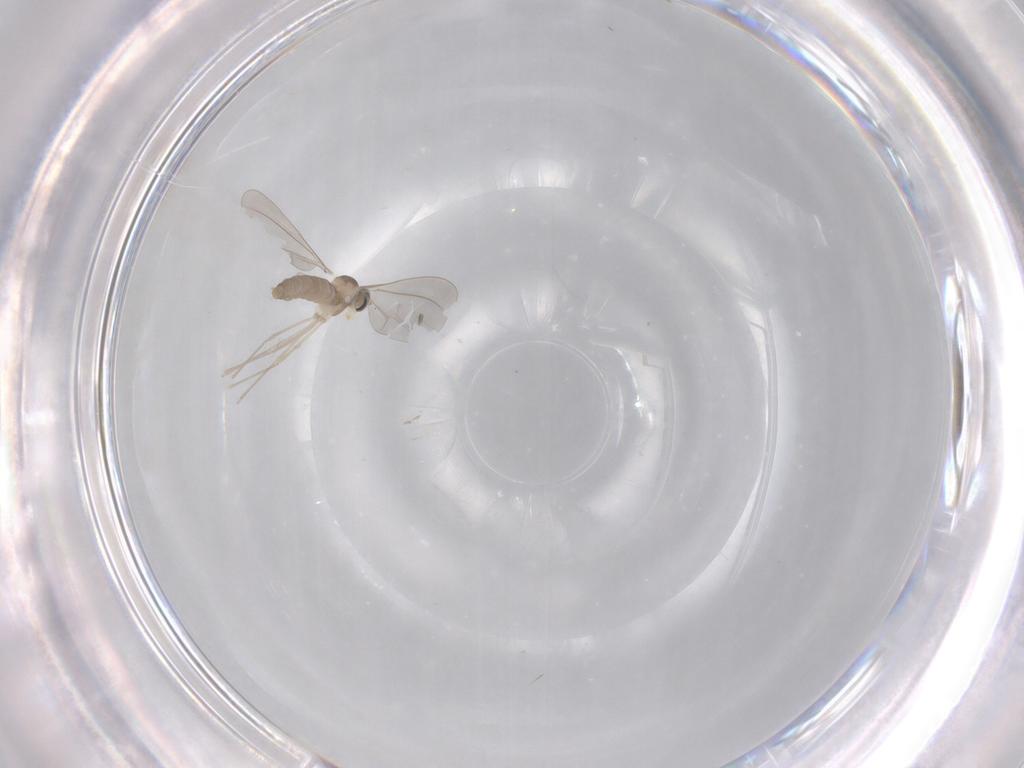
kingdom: Animalia
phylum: Arthropoda
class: Insecta
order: Diptera
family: Cecidomyiidae
